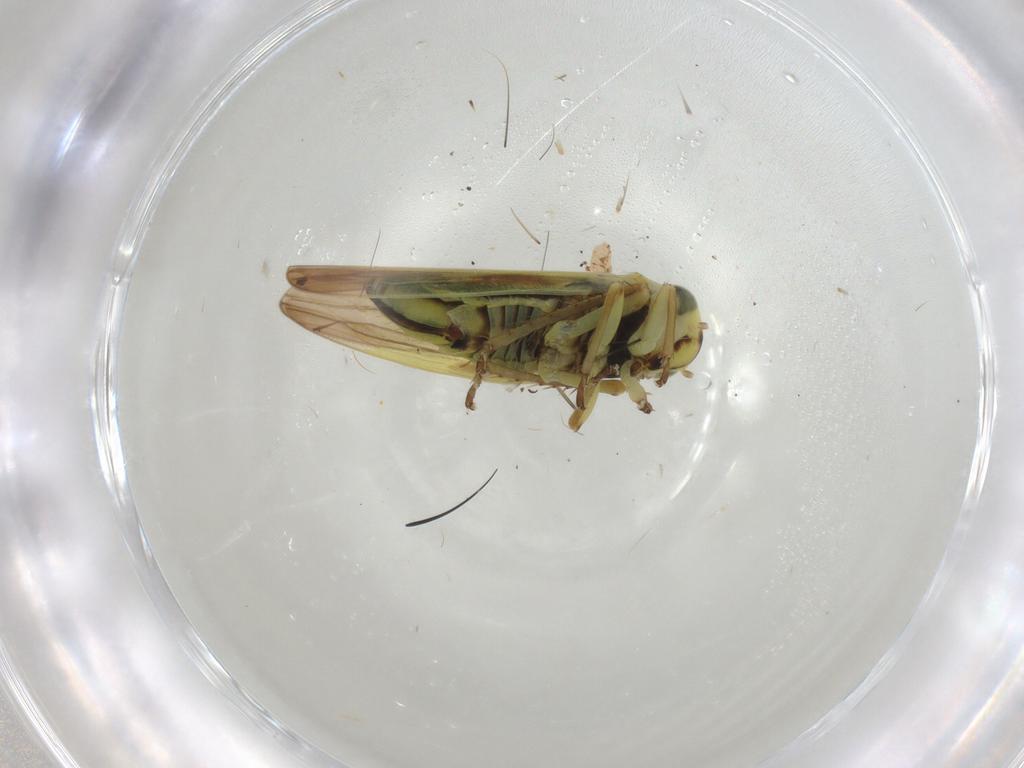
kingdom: Animalia
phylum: Arthropoda
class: Insecta
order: Hemiptera
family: Cicadellidae
